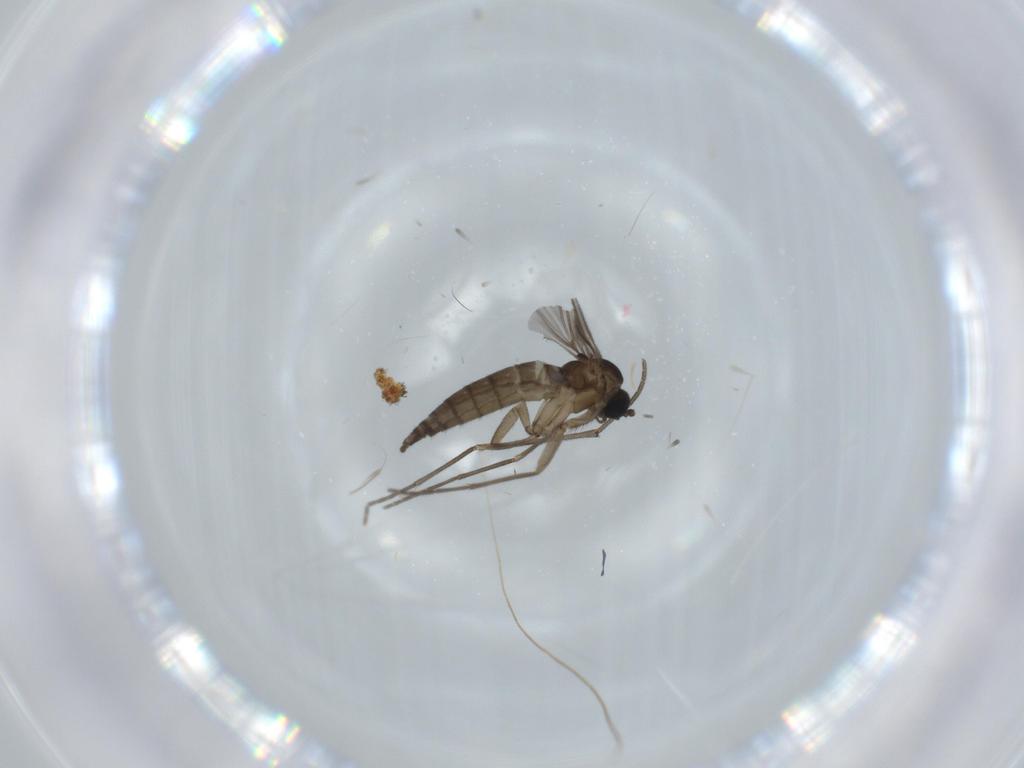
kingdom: Animalia
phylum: Arthropoda
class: Insecta
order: Diptera
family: Sciaridae
